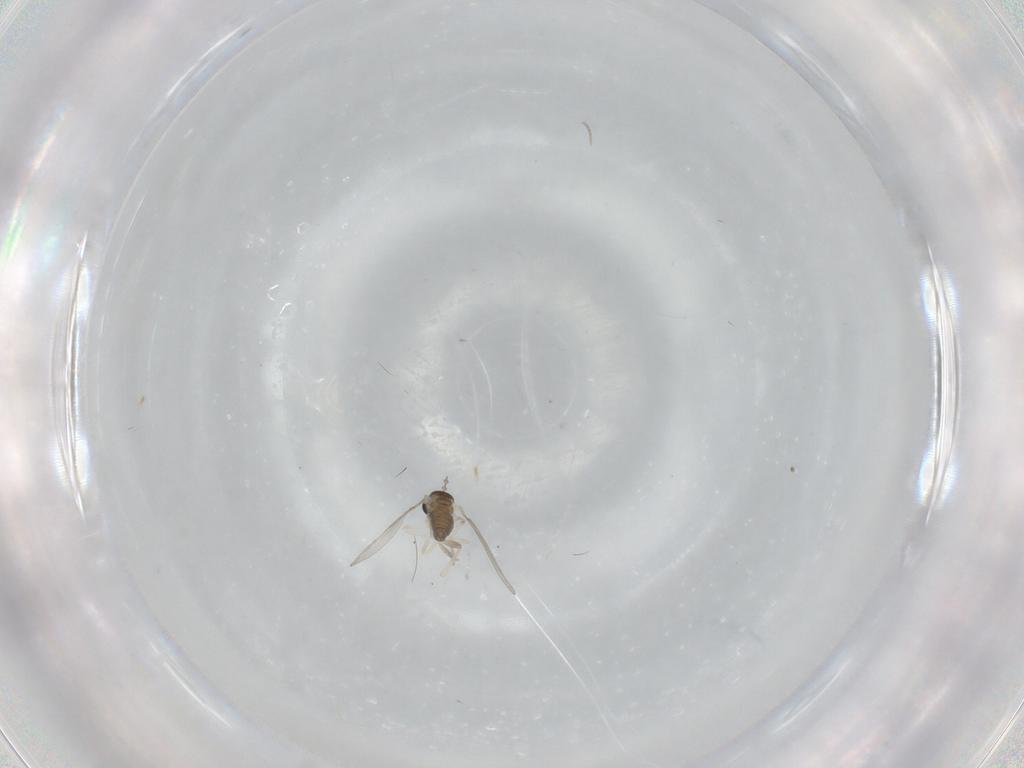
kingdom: Animalia
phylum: Arthropoda
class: Insecta
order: Diptera
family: Cecidomyiidae
